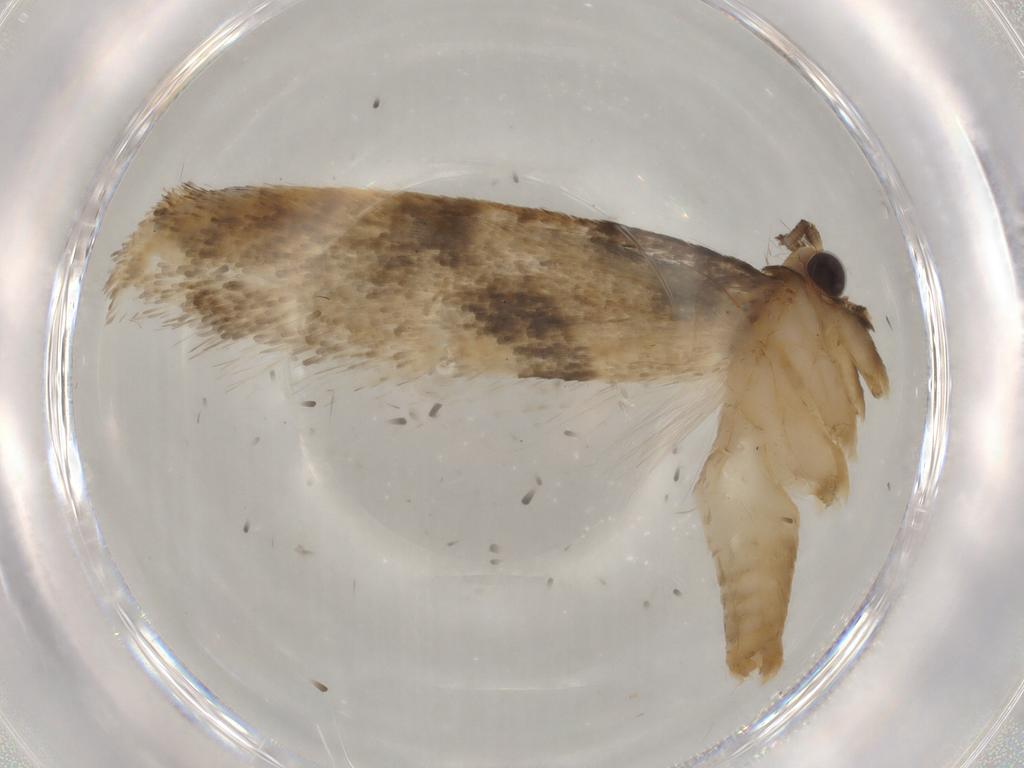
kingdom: Animalia
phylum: Arthropoda
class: Insecta
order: Lepidoptera
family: Tineidae
